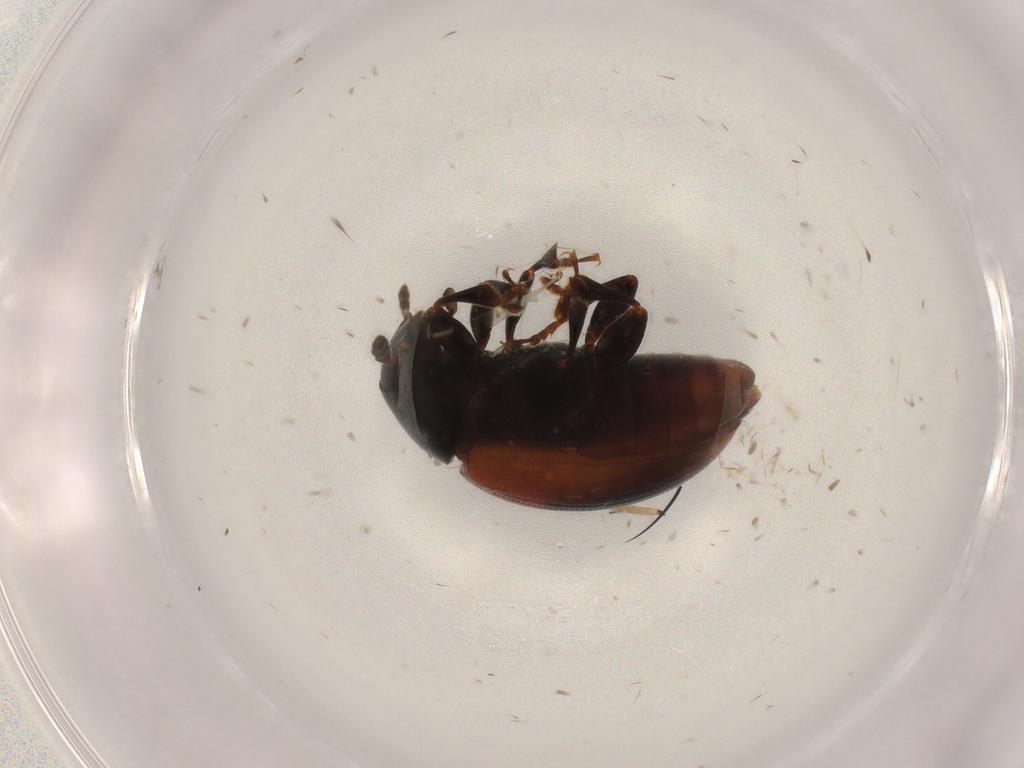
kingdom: Animalia
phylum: Arthropoda
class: Insecta
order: Coleoptera
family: Erotylidae
